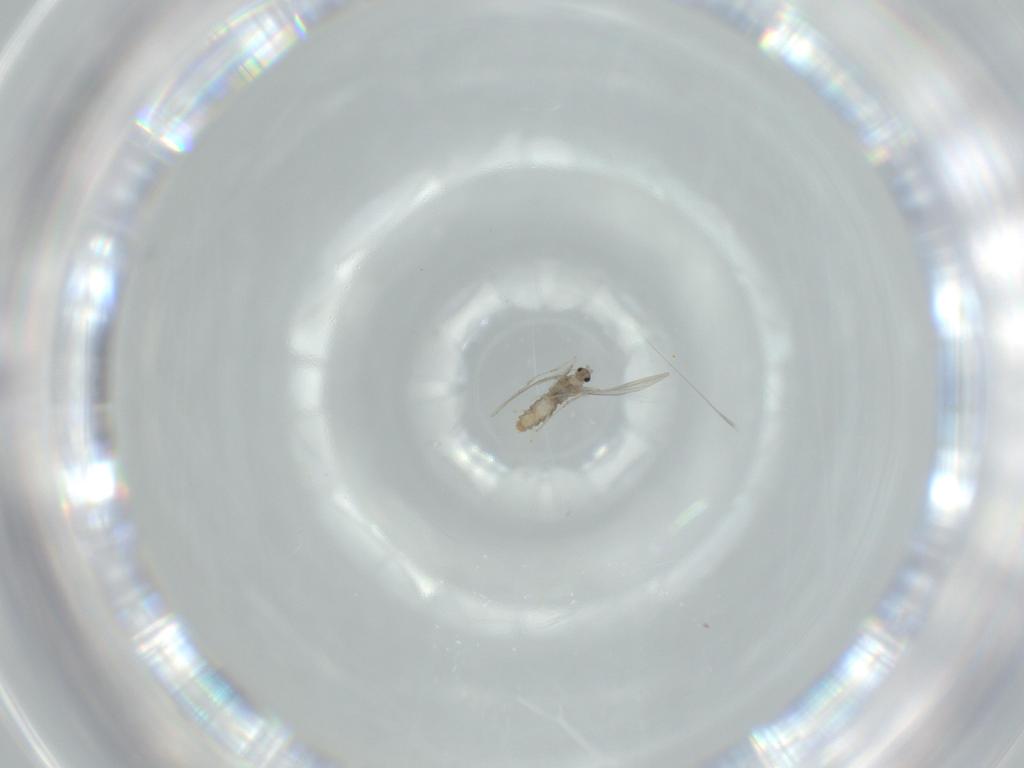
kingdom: Animalia
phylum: Arthropoda
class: Insecta
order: Diptera
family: Cecidomyiidae
